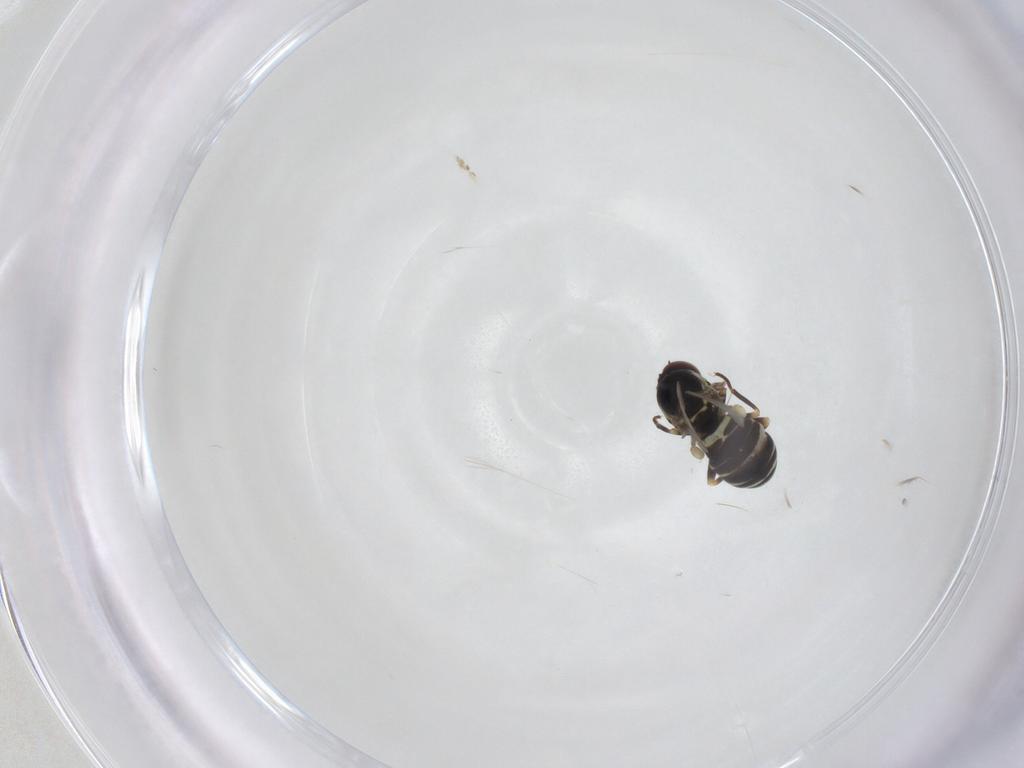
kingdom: Animalia
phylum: Arthropoda
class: Insecta
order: Diptera
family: Mythicomyiidae
